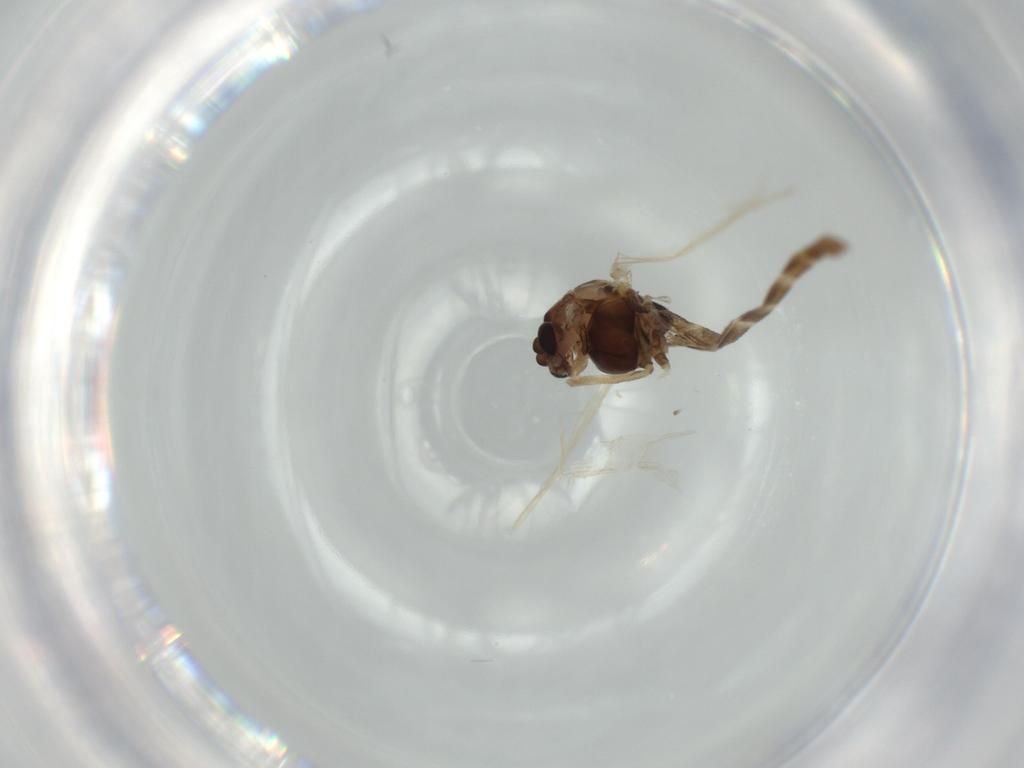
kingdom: Animalia
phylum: Arthropoda
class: Insecta
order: Diptera
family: Chironomidae
